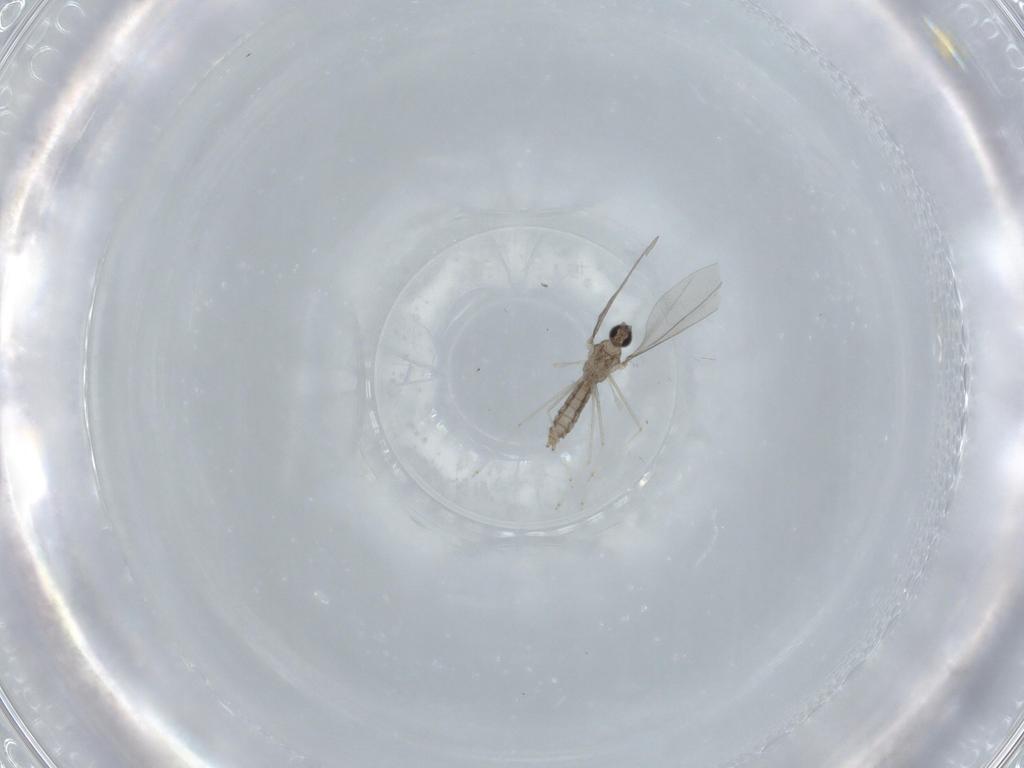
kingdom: Animalia
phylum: Arthropoda
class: Insecta
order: Diptera
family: Cecidomyiidae
